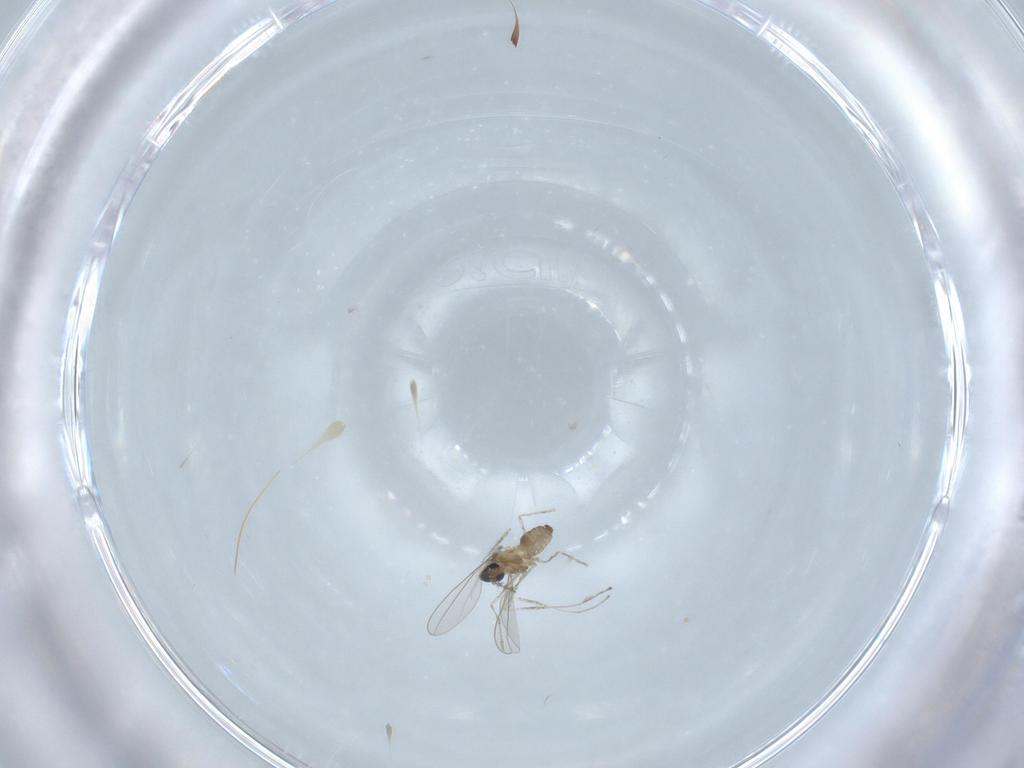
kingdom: Animalia
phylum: Arthropoda
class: Insecta
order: Diptera
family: Cecidomyiidae
